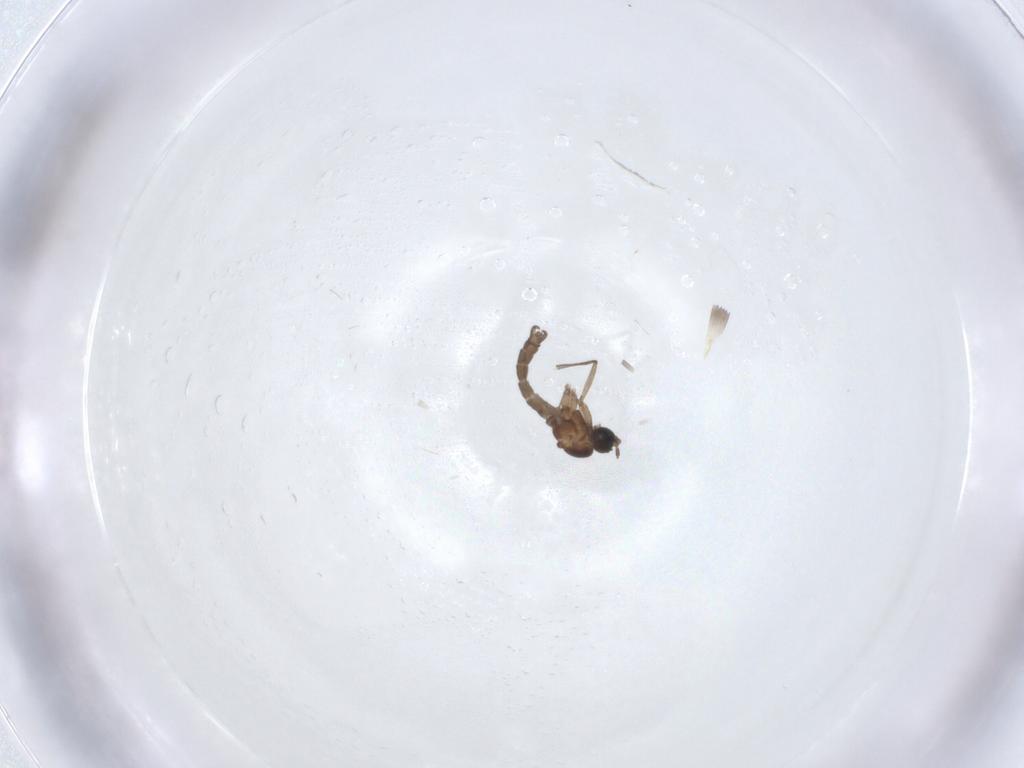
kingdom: Animalia
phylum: Arthropoda
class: Insecta
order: Diptera
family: Sciaridae
